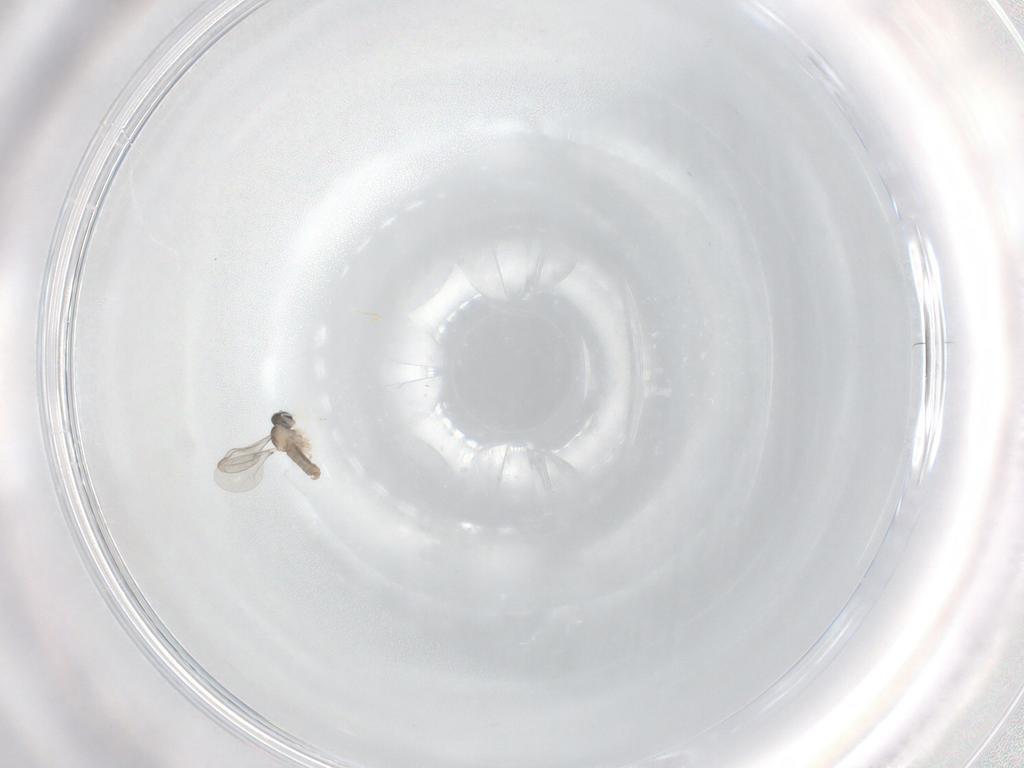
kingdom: Animalia
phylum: Arthropoda
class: Insecta
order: Diptera
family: Cecidomyiidae
